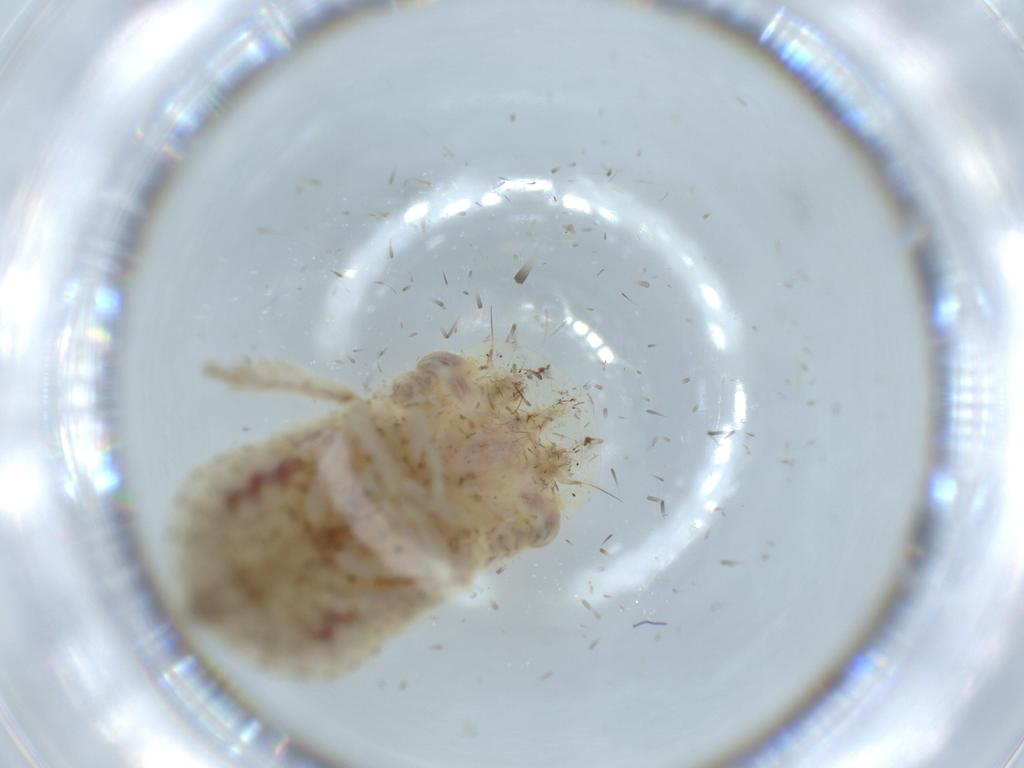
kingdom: Animalia
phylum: Arthropoda
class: Insecta
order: Hemiptera
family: Cicadellidae
